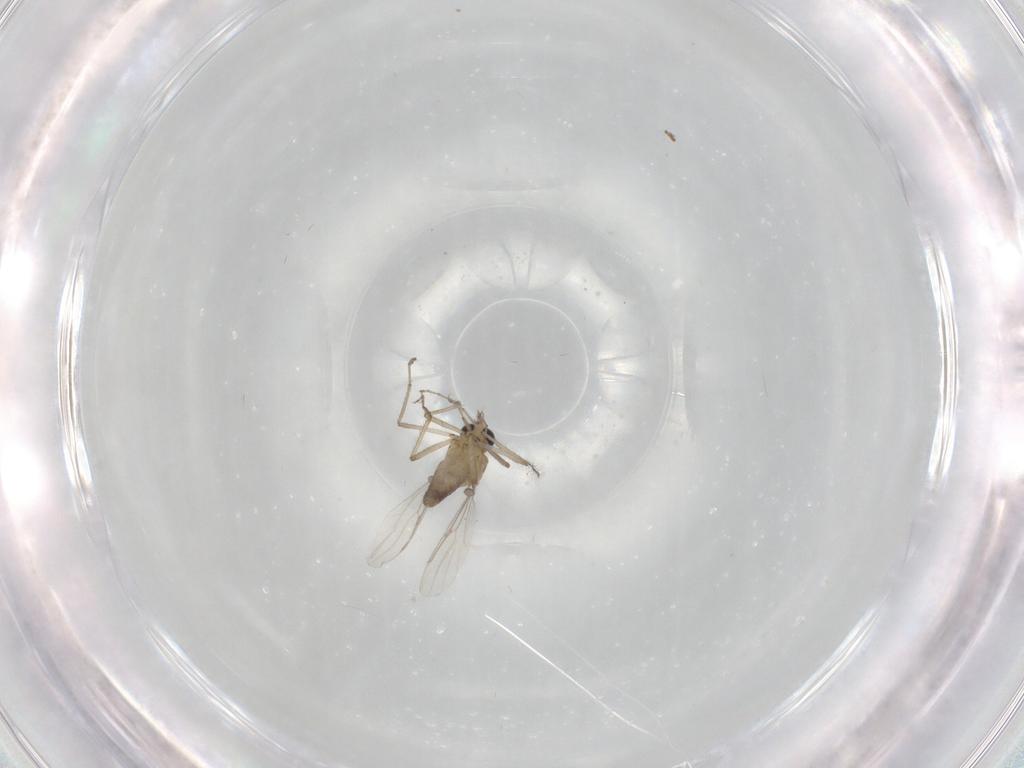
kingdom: Animalia
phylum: Arthropoda
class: Insecta
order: Diptera
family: Ceratopogonidae
